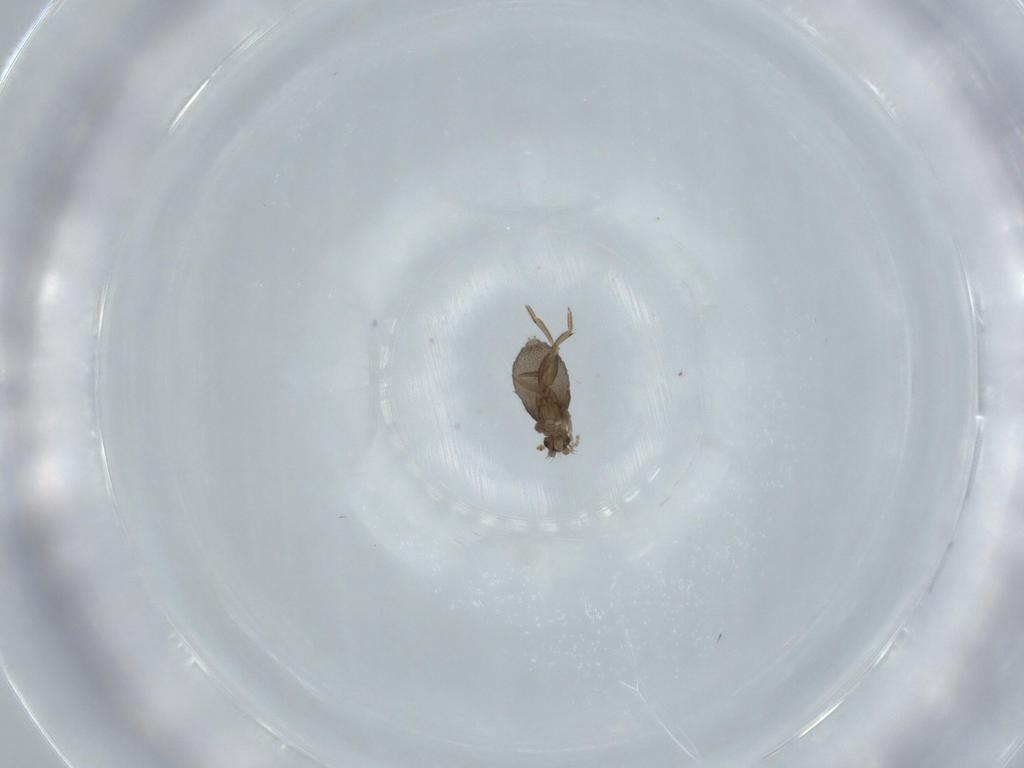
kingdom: Animalia
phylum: Arthropoda
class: Insecta
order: Diptera
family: Phoridae
